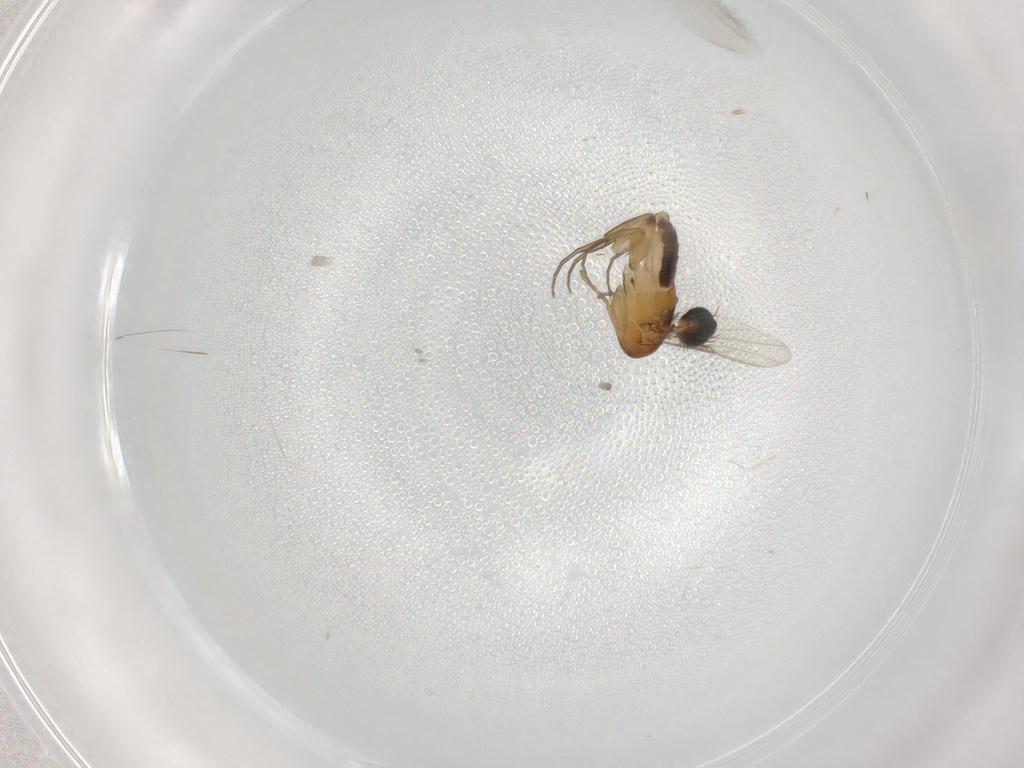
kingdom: Animalia
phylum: Arthropoda
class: Insecta
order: Diptera
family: Phoridae
